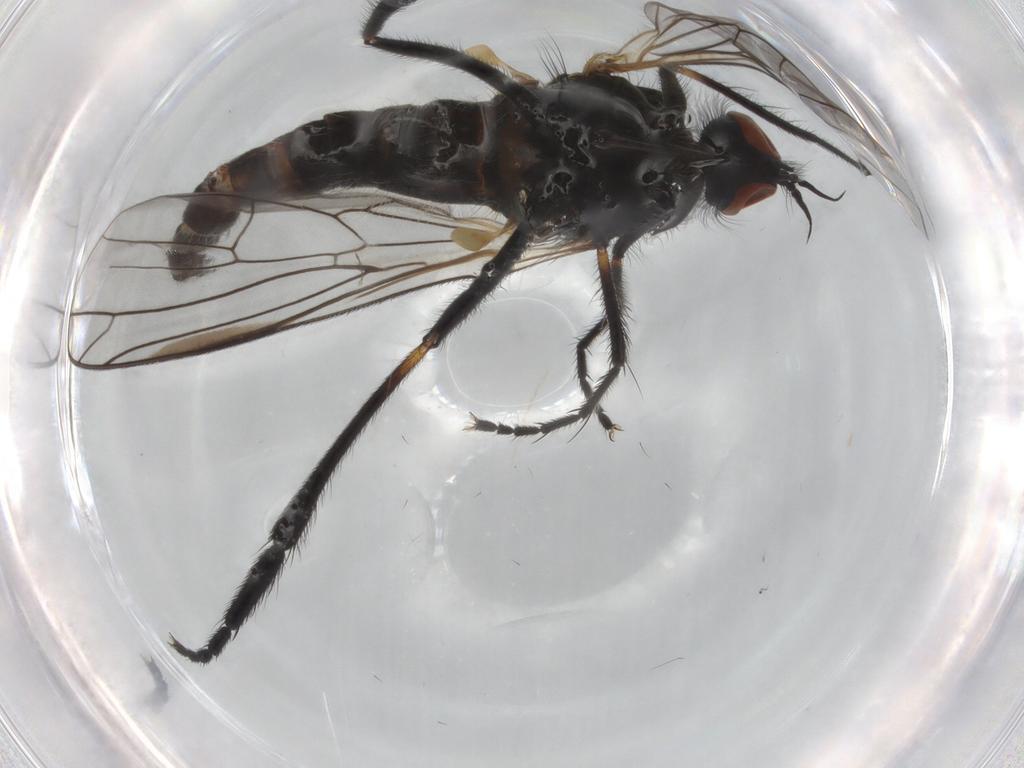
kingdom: Animalia
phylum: Arthropoda
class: Insecta
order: Diptera
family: Empididae
